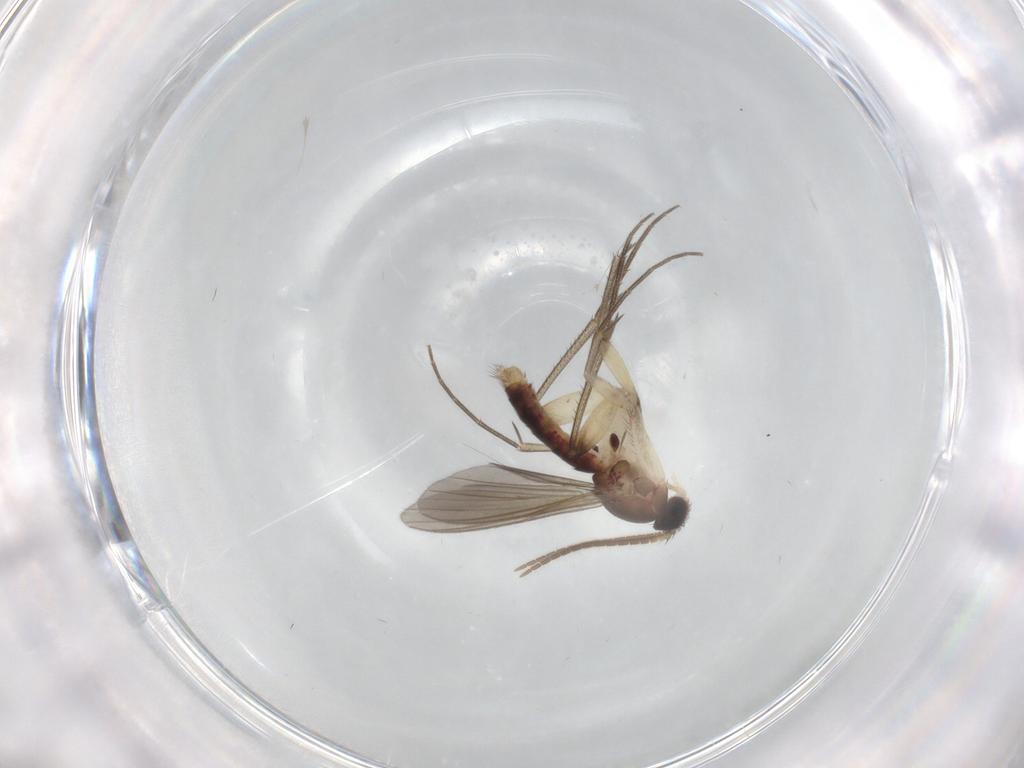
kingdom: Animalia
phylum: Arthropoda
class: Insecta
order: Diptera
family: Mycetophilidae
